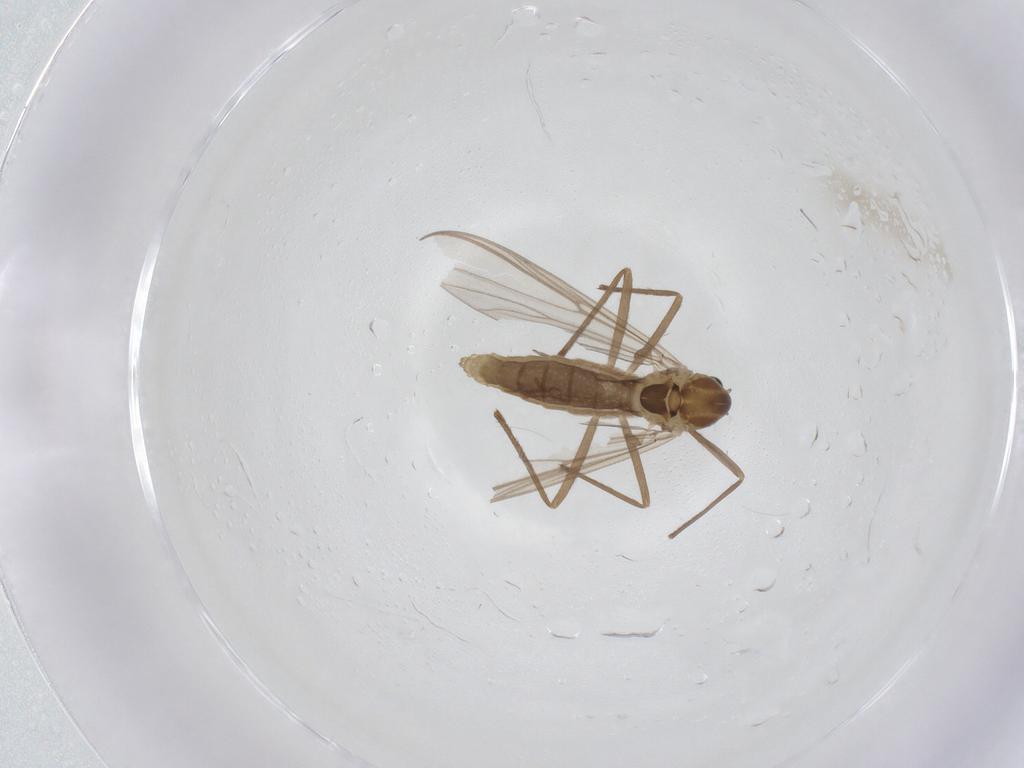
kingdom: Animalia
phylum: Arthropoda
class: Insecta
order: Diptera
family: Chironomidae
